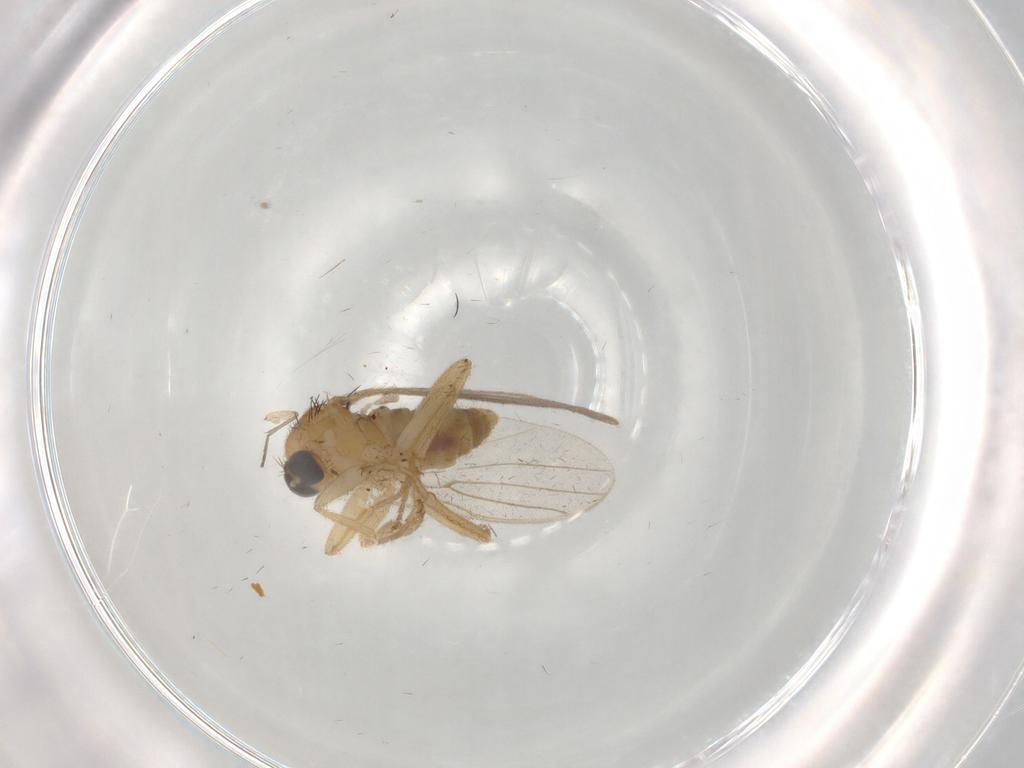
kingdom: Animalia
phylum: Arthropoda
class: Insecta
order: Diptera
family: Hybotidae
